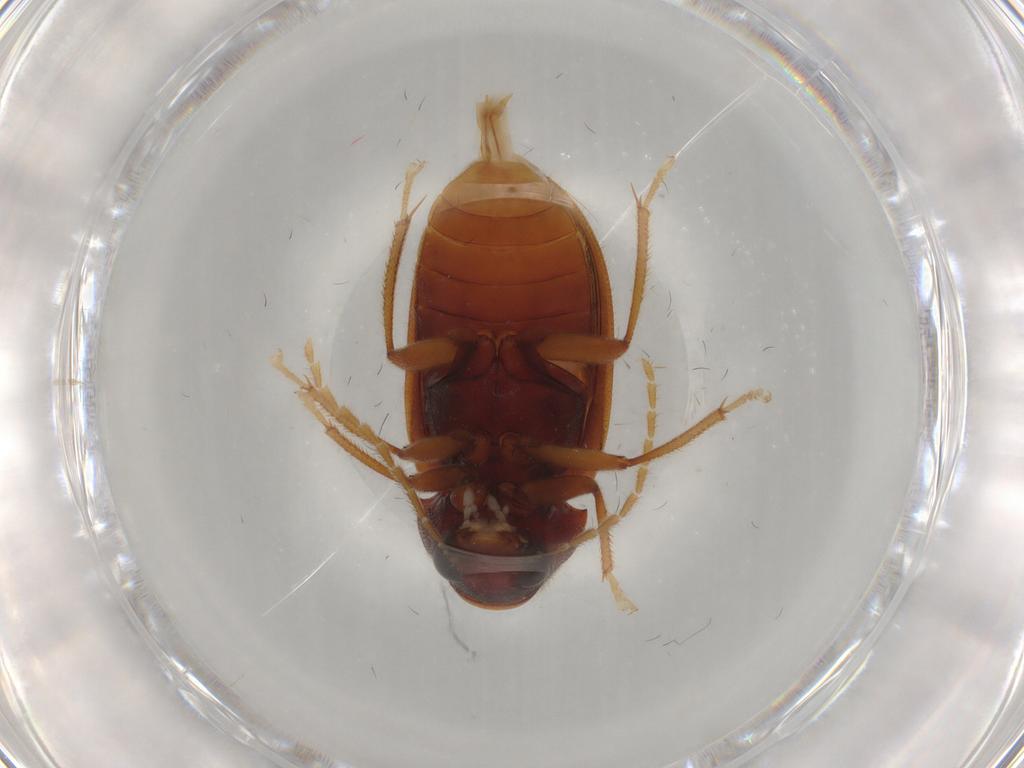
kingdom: Animalia
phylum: Arthropoda
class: Insecta
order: Coleoptera
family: Ptilodactylidae
